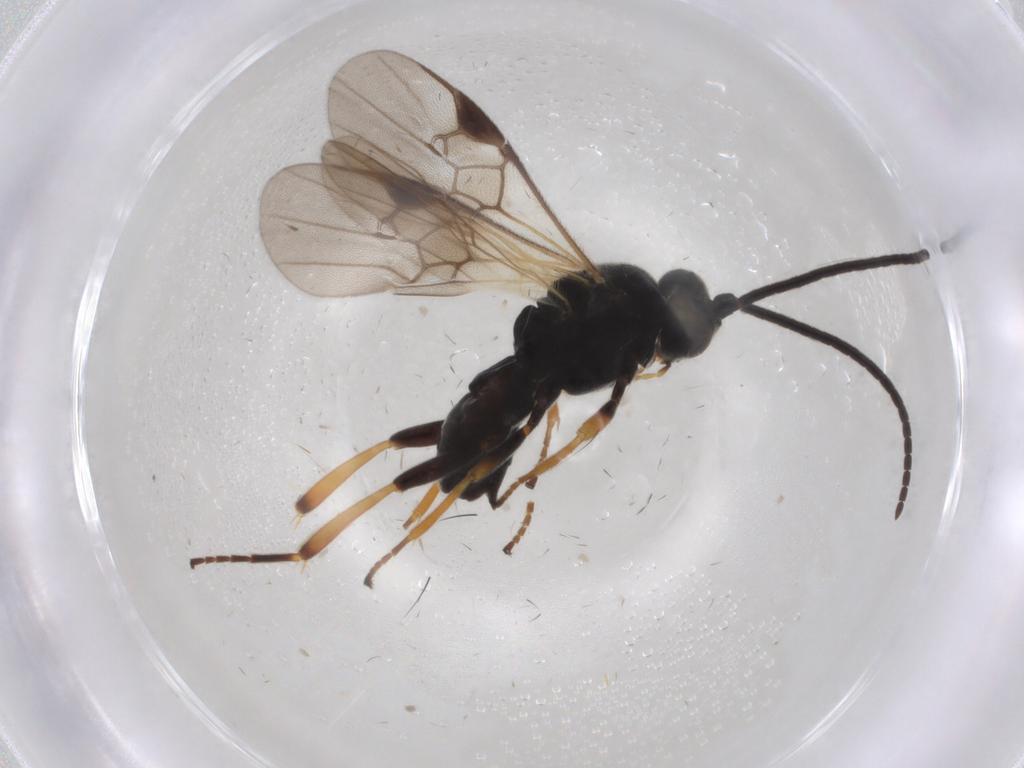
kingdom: Animalia
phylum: Arthropoda
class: Insecta
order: Hymenoptera
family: Braconidae
